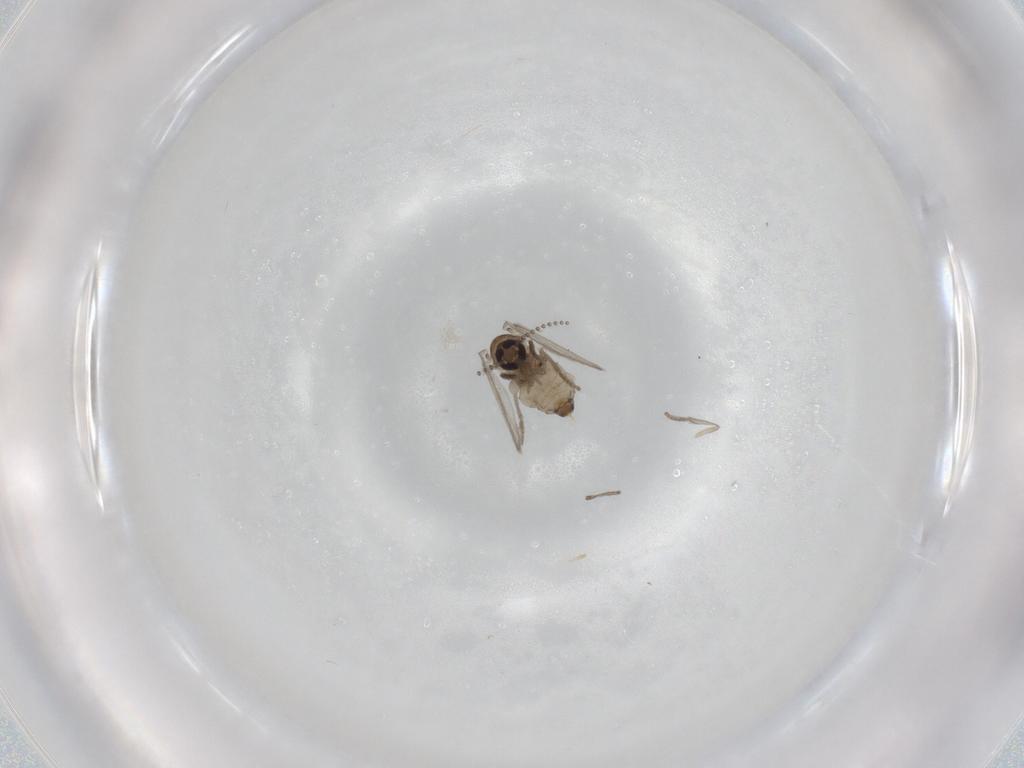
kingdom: Animalia
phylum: Arthropoda
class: Insecta
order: Diptera
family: Psychodidae
